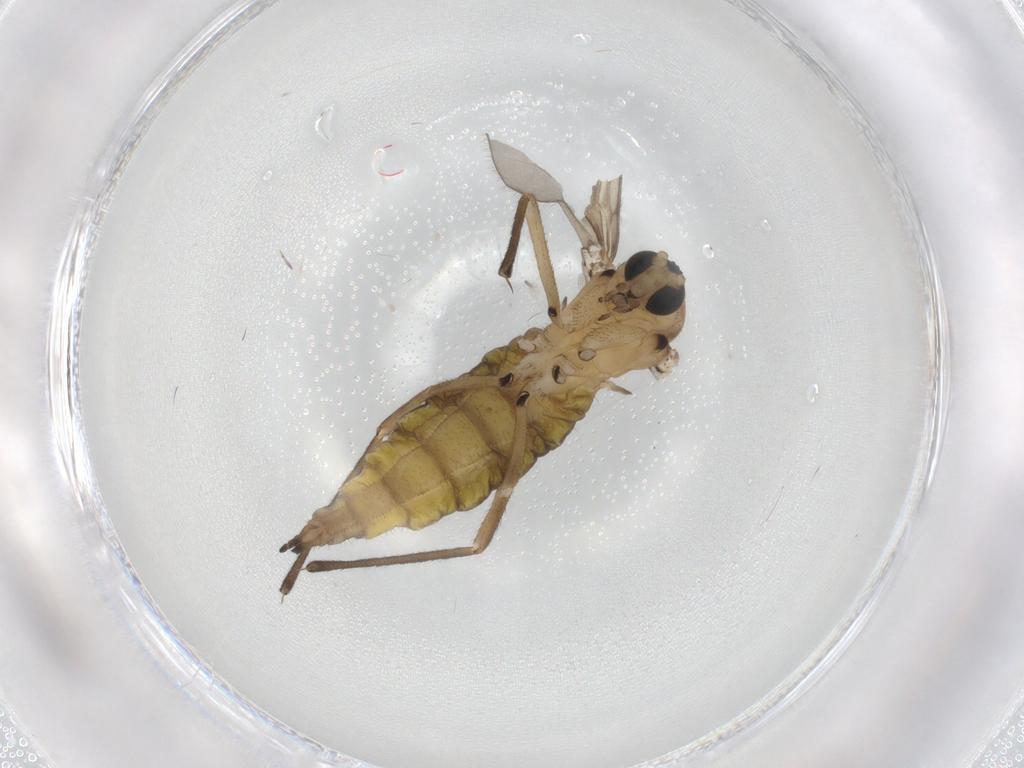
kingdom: Animalia
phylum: Arthropoda
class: Insecta
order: Diptera
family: Sciaridae
